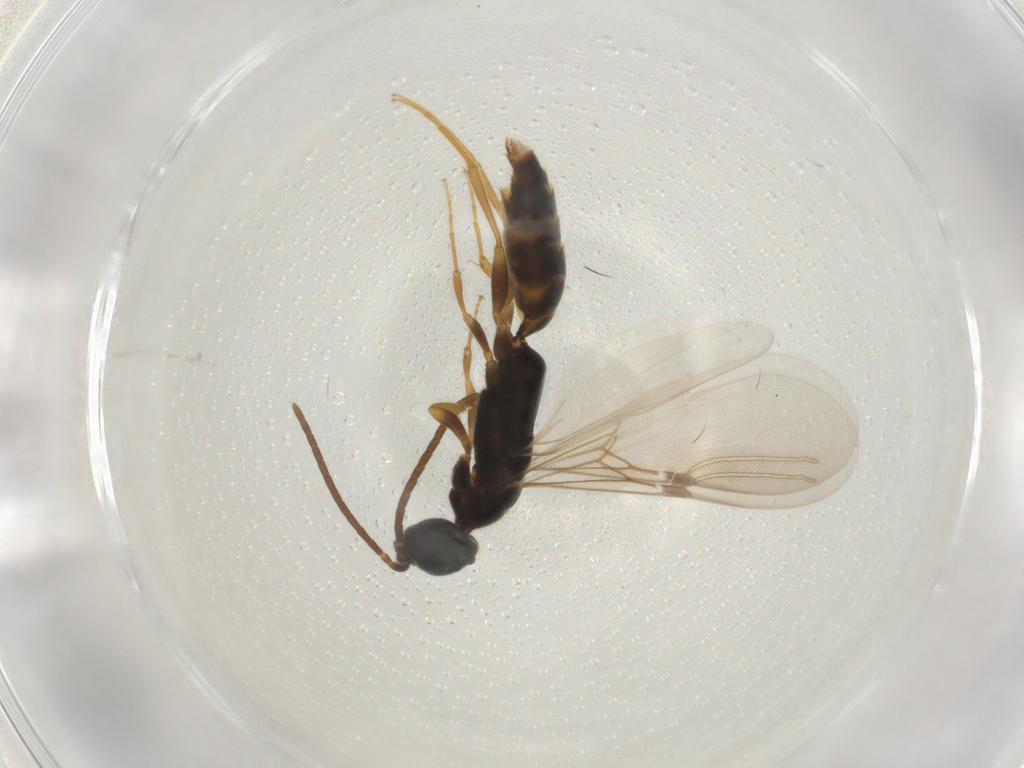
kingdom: Animalia
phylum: Arthropoda
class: Insecta
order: Hymenoptera
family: Bethylidae
